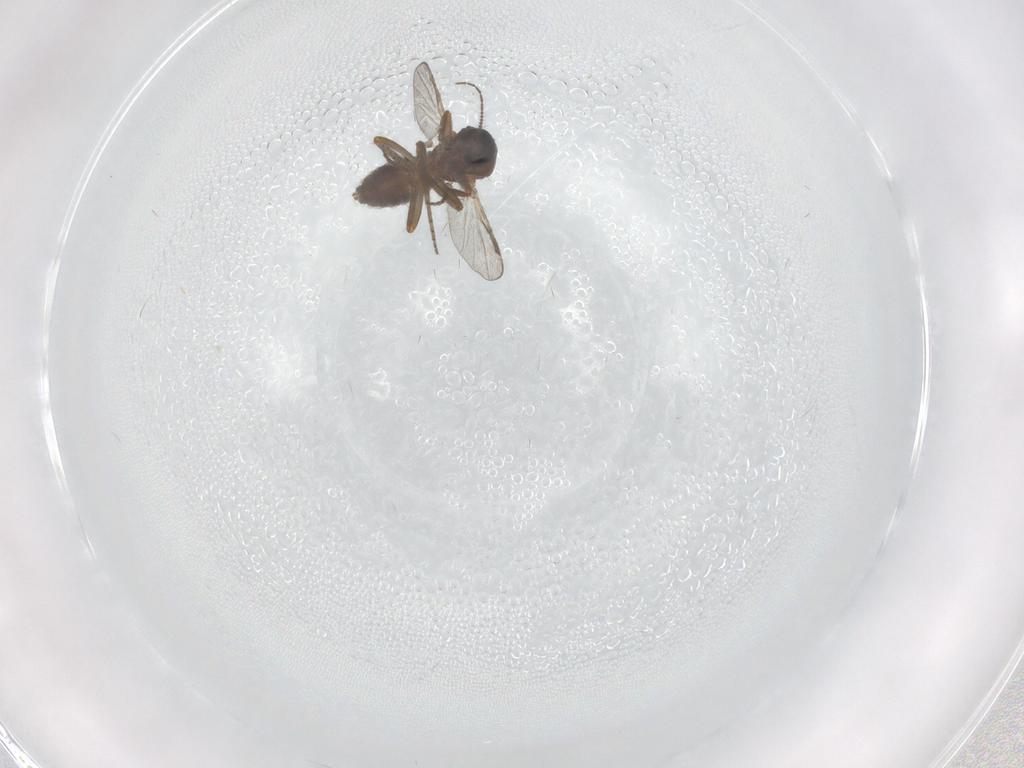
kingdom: Animalia
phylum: Arthropoda
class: Insecta
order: Diptera
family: Ceratopogonidae
